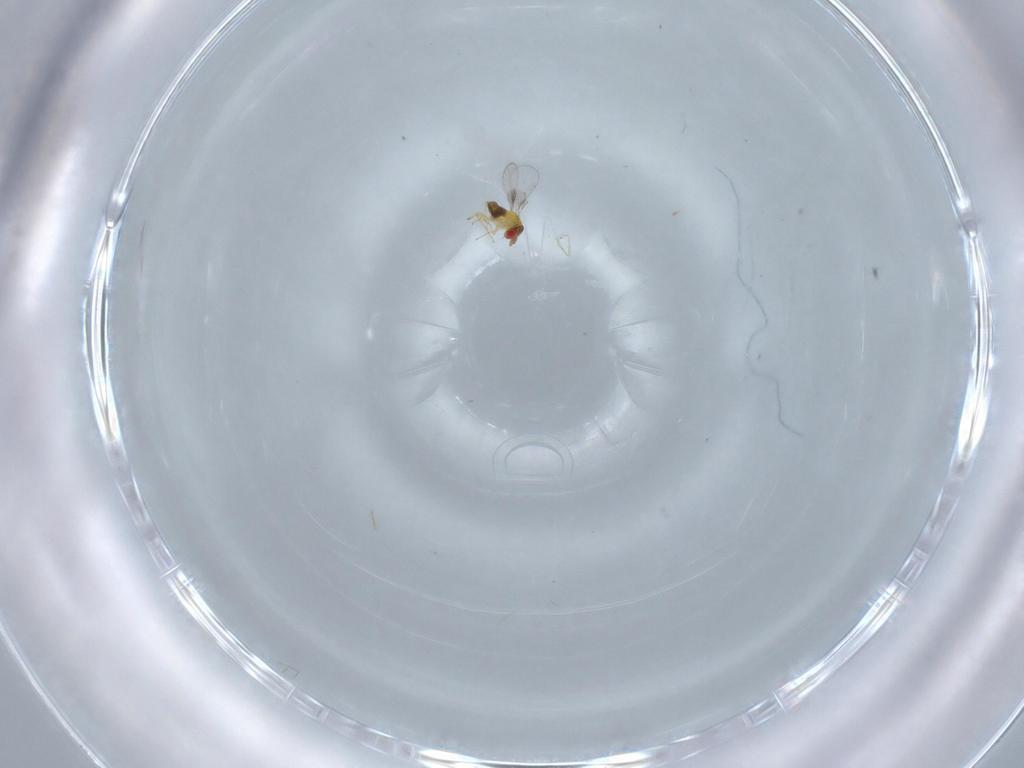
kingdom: Animalia
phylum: Arthropoda
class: Insecta
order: Hymenoptera
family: Trichogrammatidae
